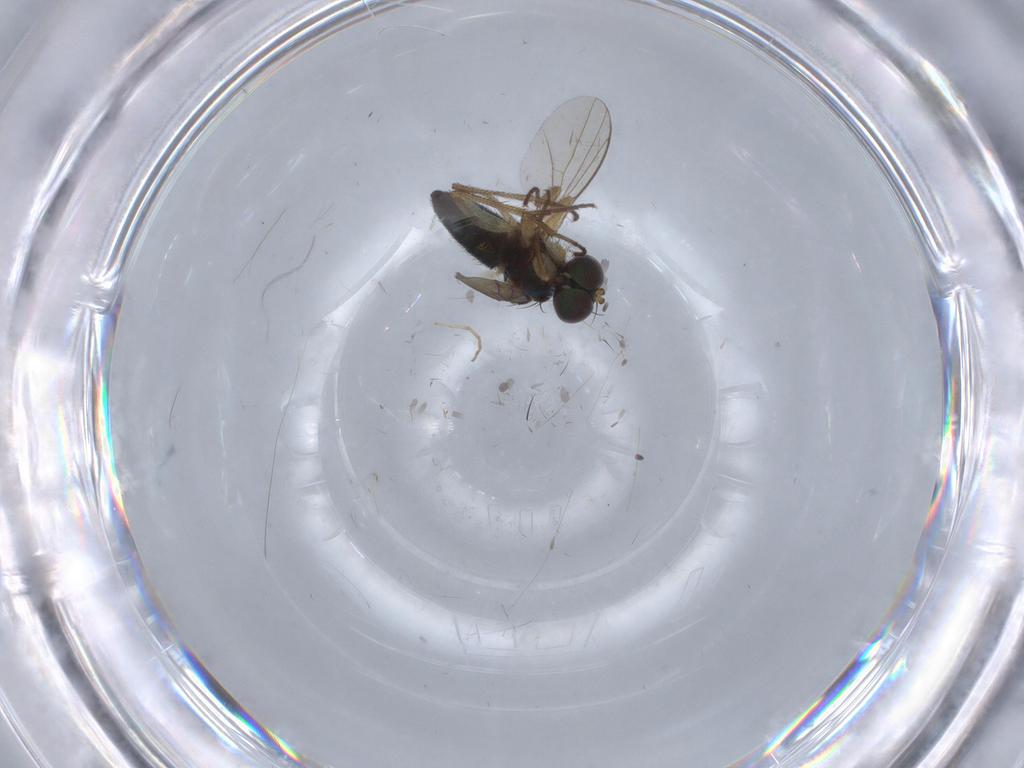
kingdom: Animalia
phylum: Arthropoda
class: Insecta
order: Diptera
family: Chironomidae
